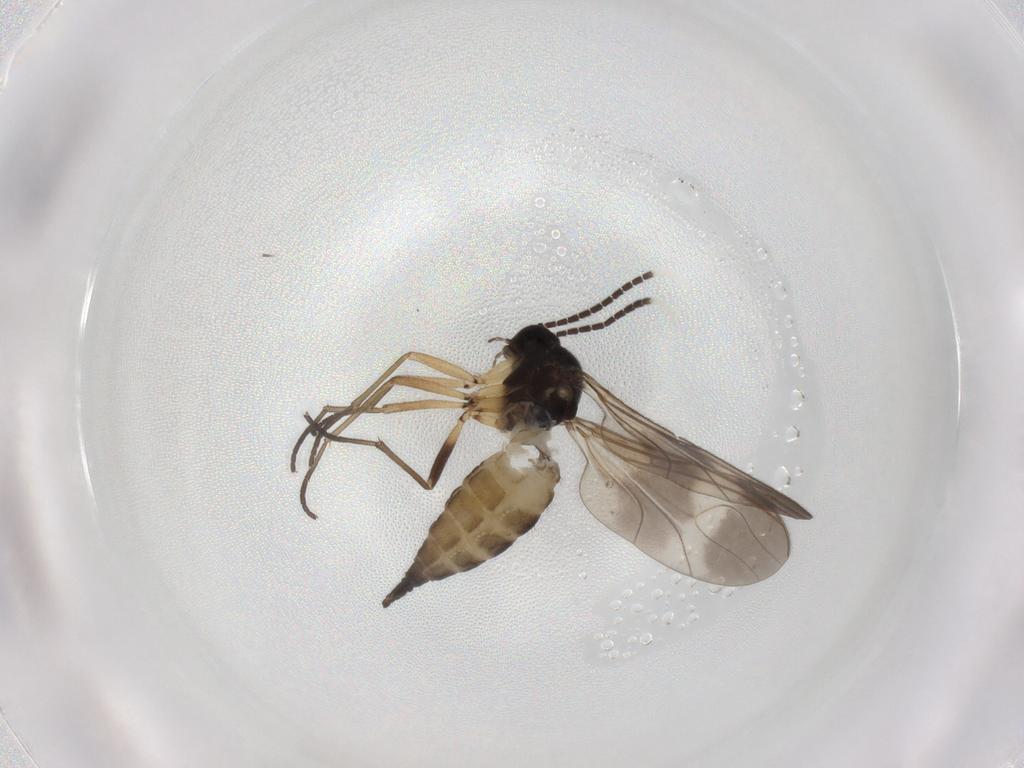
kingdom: Animalia
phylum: Arthropoda
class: Insecta
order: Diptera
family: Sciaridae
